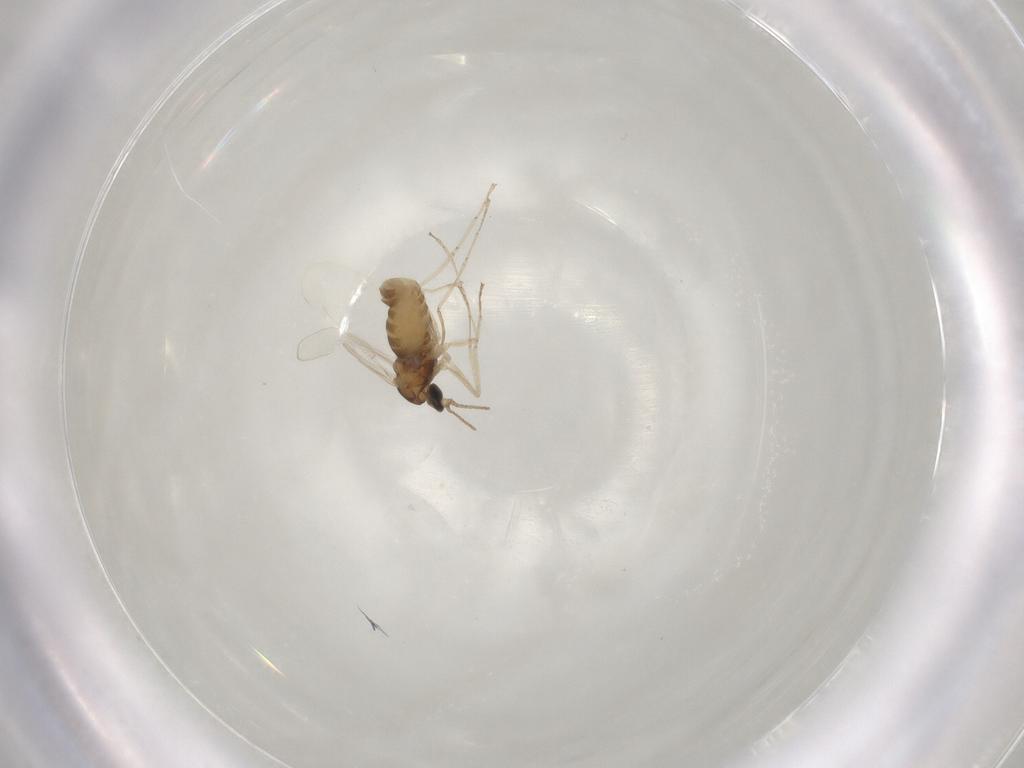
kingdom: Animalia
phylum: Arthropoda
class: Insecta
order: Diptera
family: Cecidomyiidae
